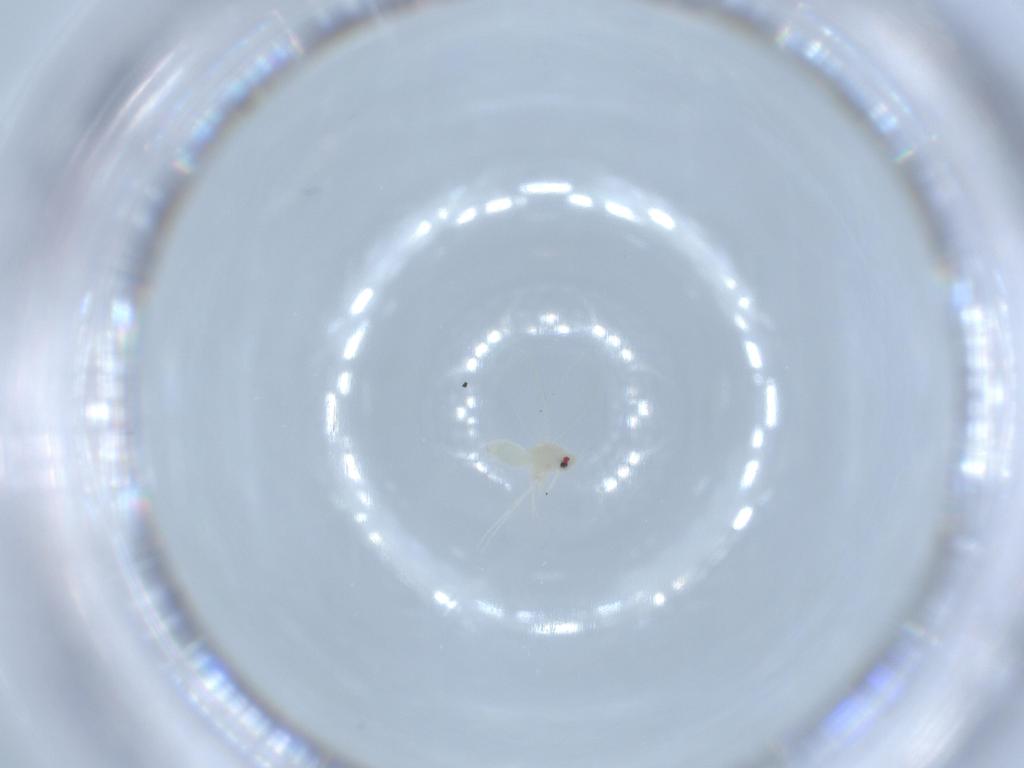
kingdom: Animalia
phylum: Arthropoda
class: Insecta
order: Hemiptera
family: Aleyrodidae
